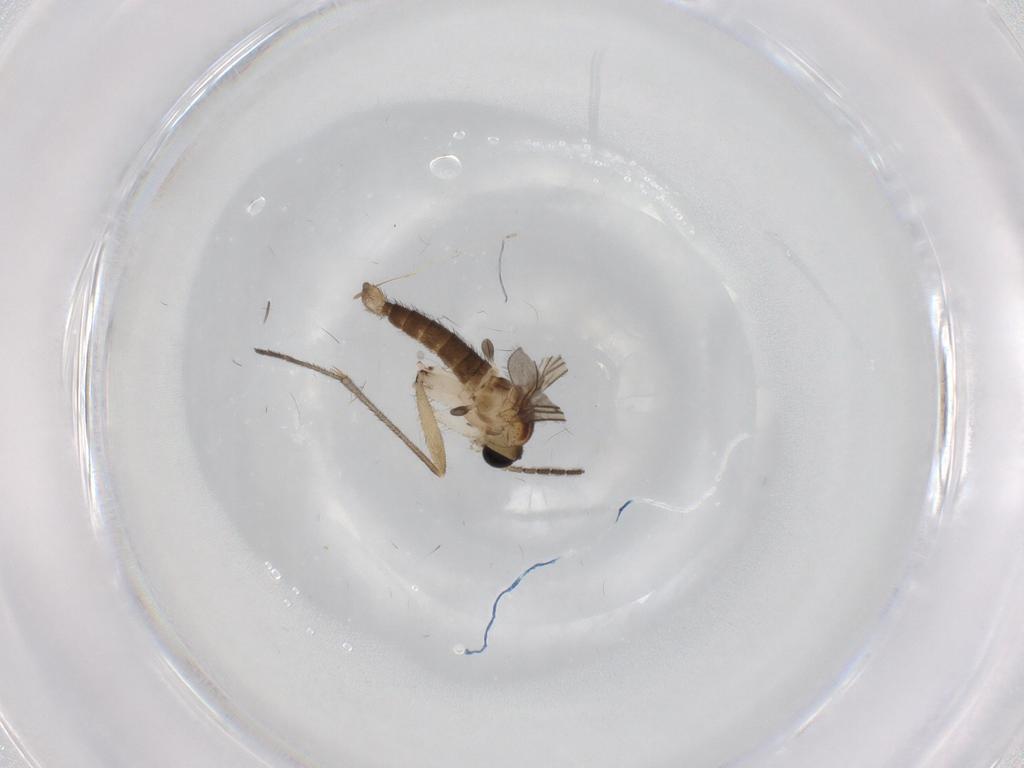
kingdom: Animalia
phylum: Arthropoda
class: Insecta
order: Diptera
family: Sciaridae
